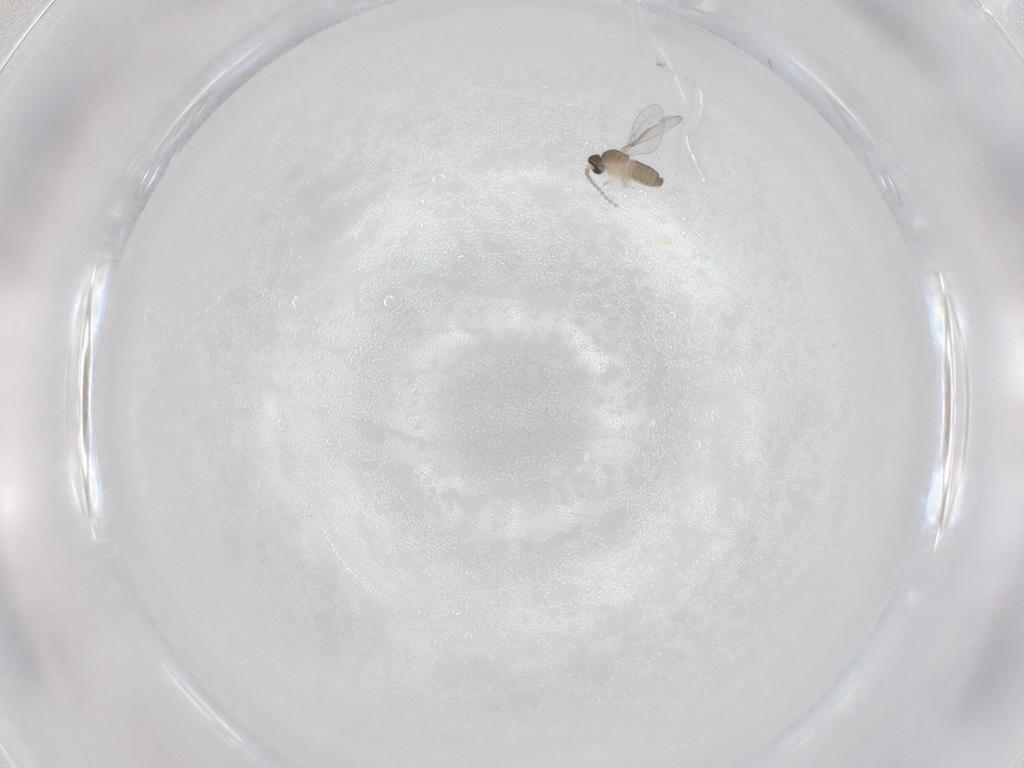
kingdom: Animalia
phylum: Arthropoda
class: Insecta
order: Diptera
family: Cecidomyiidae
